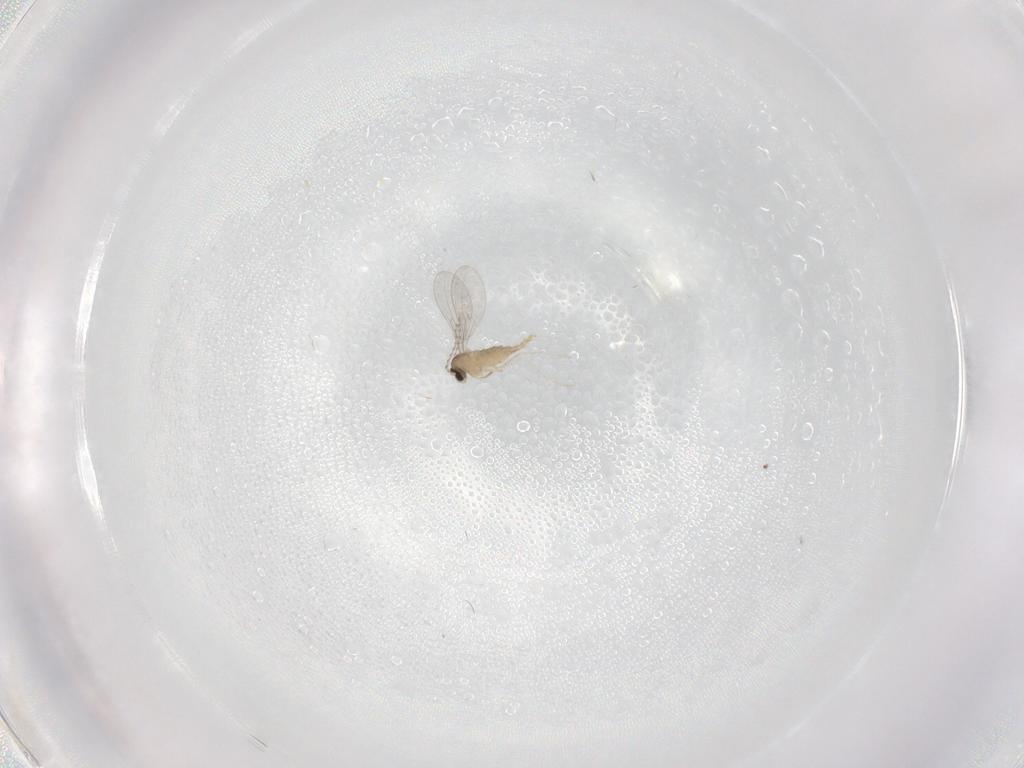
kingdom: Animalia
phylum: Arthropoda
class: Insecta
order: Diptera
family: Cecidomyiidae
